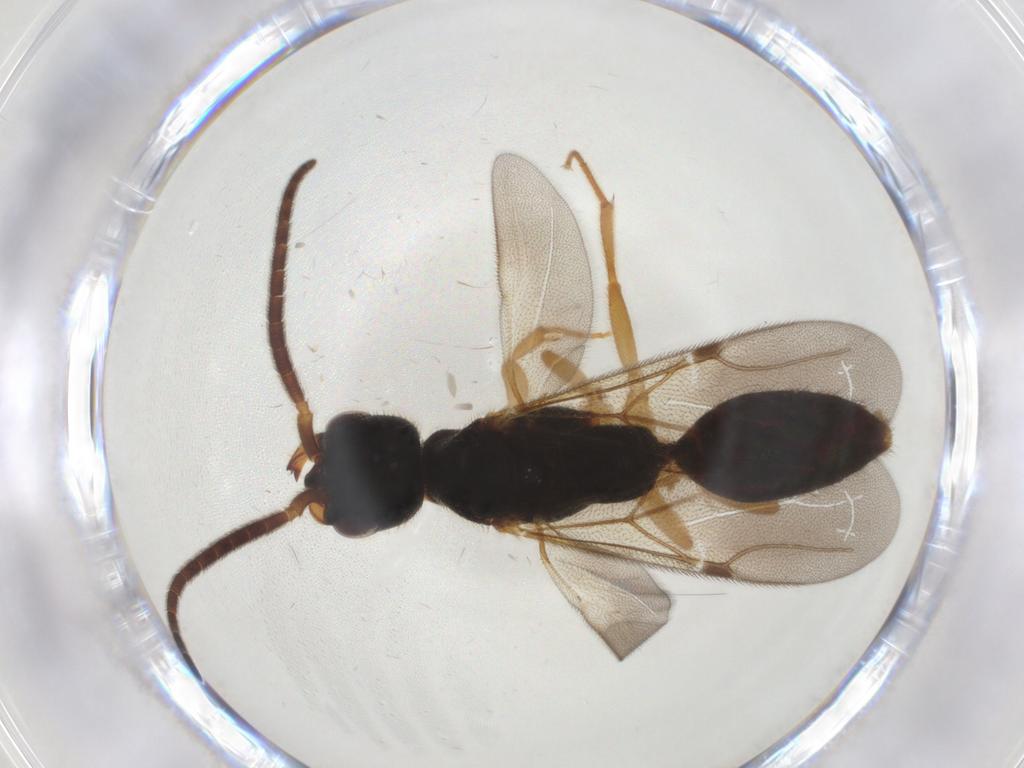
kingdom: Animalia
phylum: Arthropoda
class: Insecta
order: Hymenoptera
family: Bethylidae
